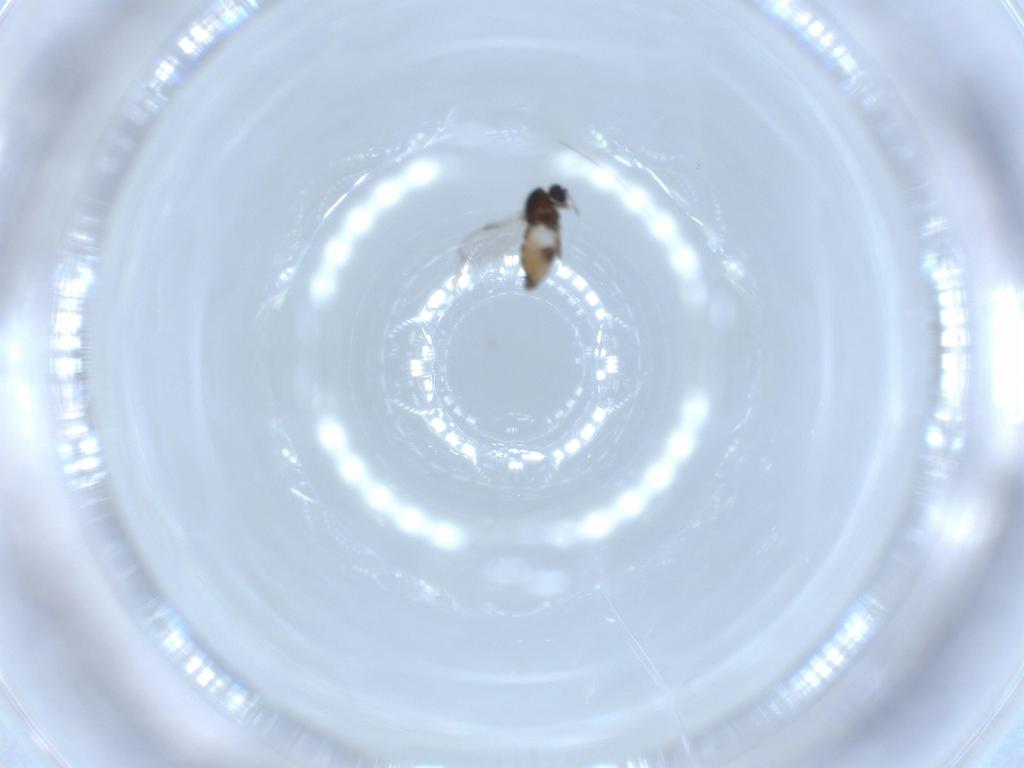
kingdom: Animalia
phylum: Arthropoda
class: Insecta
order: Diptera
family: Ceratopogonidae
